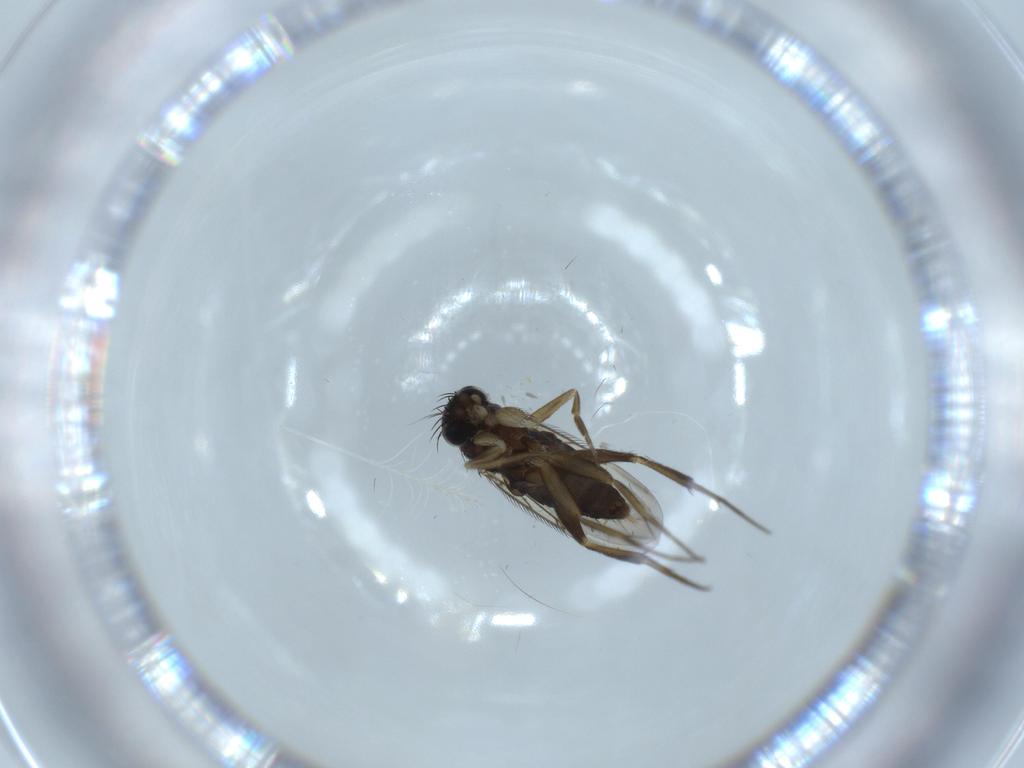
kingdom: Animalia
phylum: Arthropoda
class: Insecta
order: Diptera
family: Phoridae
